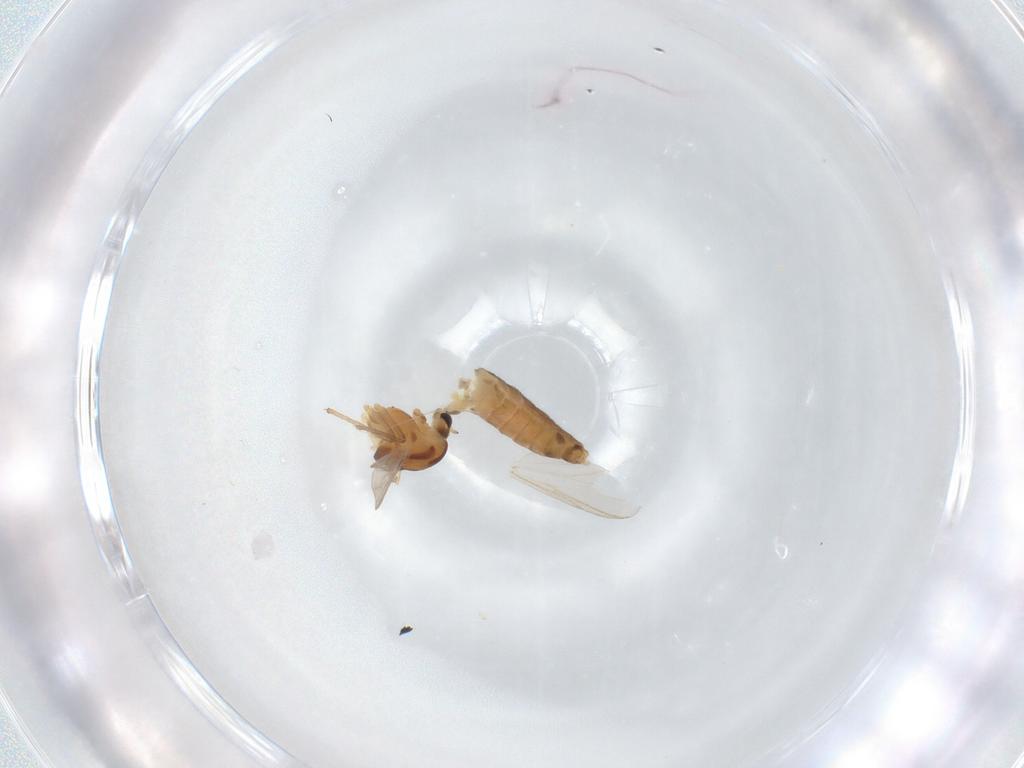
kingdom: Animalia
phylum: Arthropoda
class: Insecta
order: Diptera
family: Chironomidae
